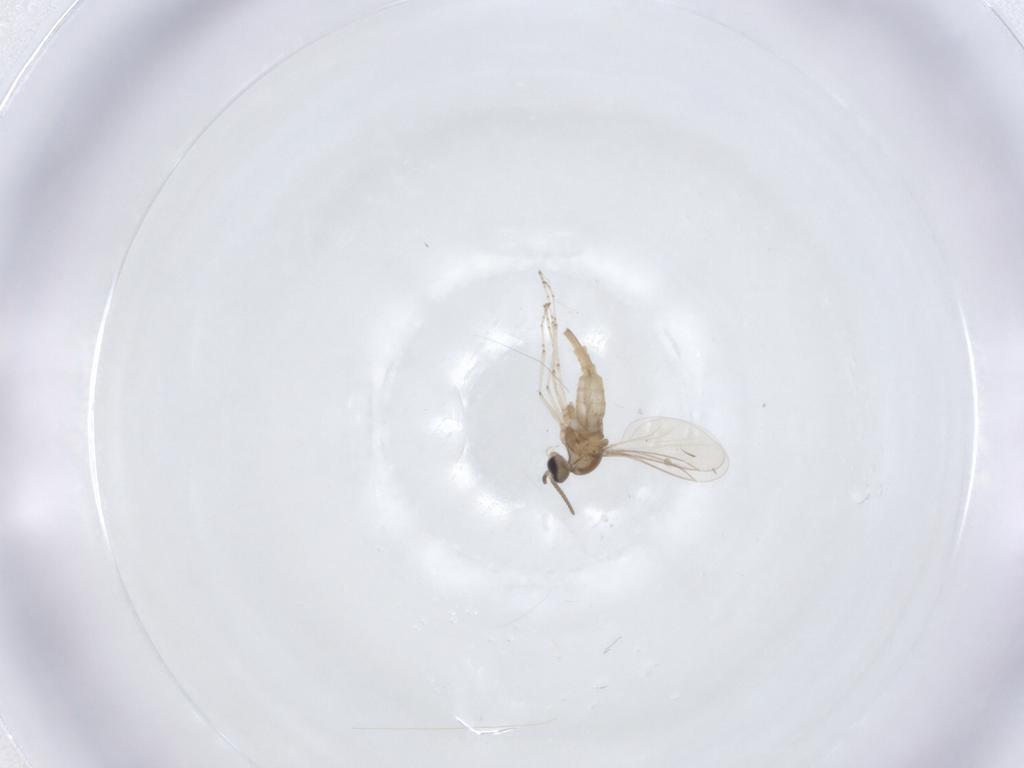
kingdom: Animalia
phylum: Arthropoda
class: Insecta
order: Diptera
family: Cecidomyiidae
